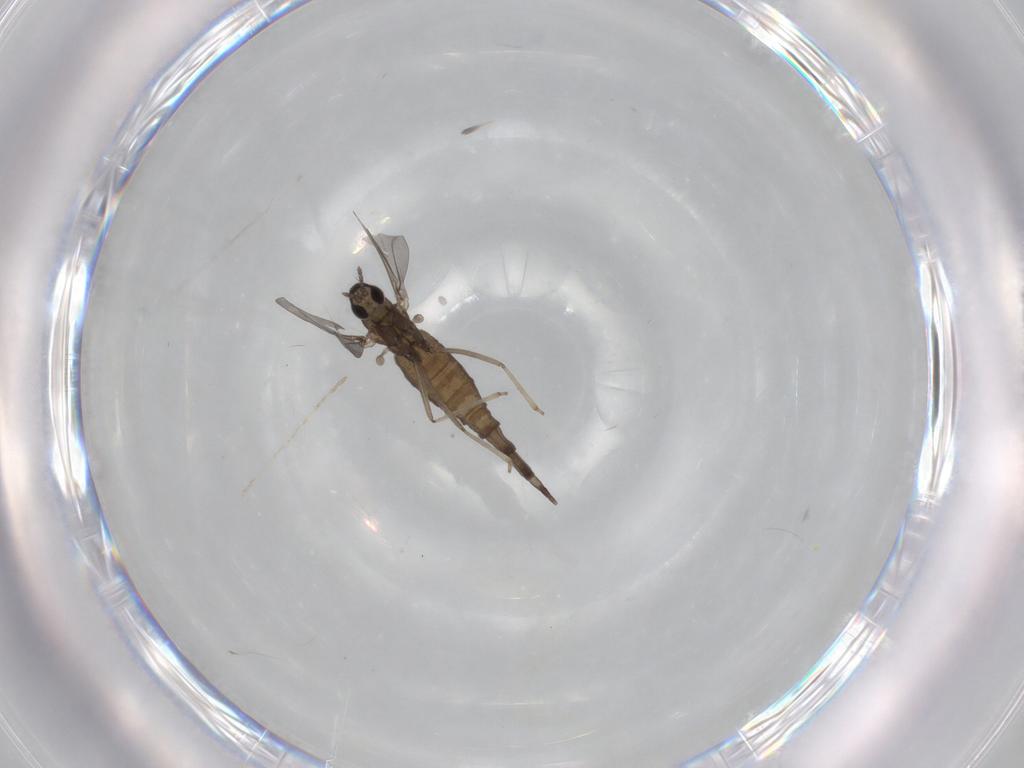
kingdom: Animalia
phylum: Arthropoda
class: Insecta
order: Diptera
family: Cecidomyiidae
